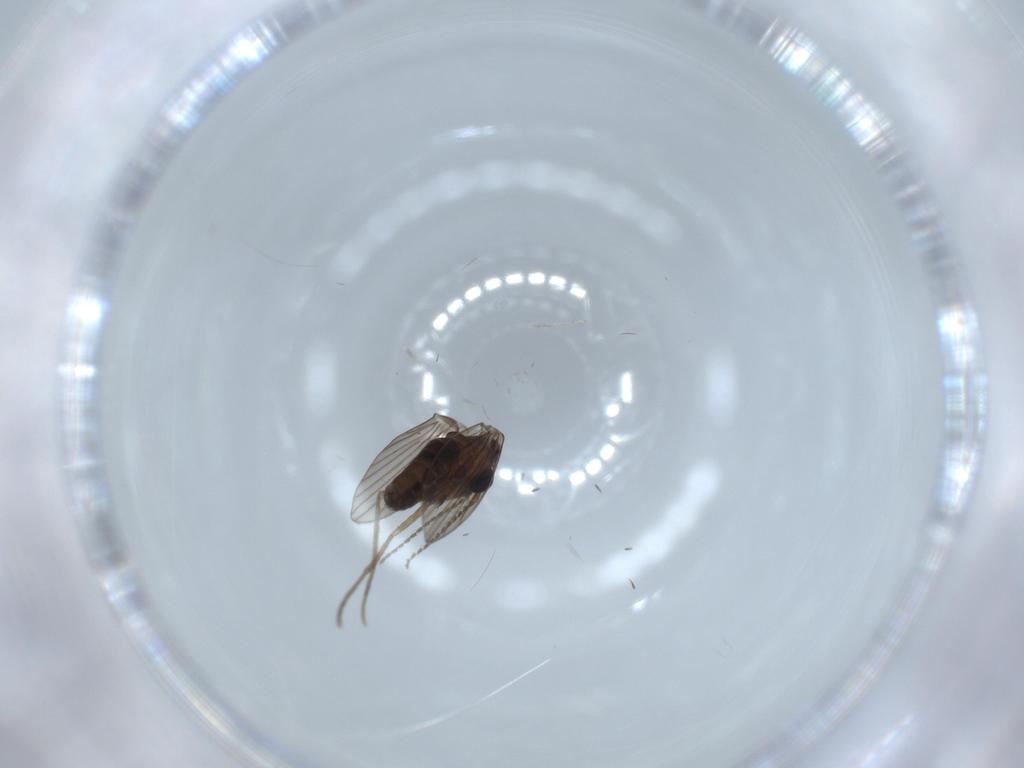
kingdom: Animalia
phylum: Arthropoda
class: Insecta
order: Diptera
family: Psychodidae
